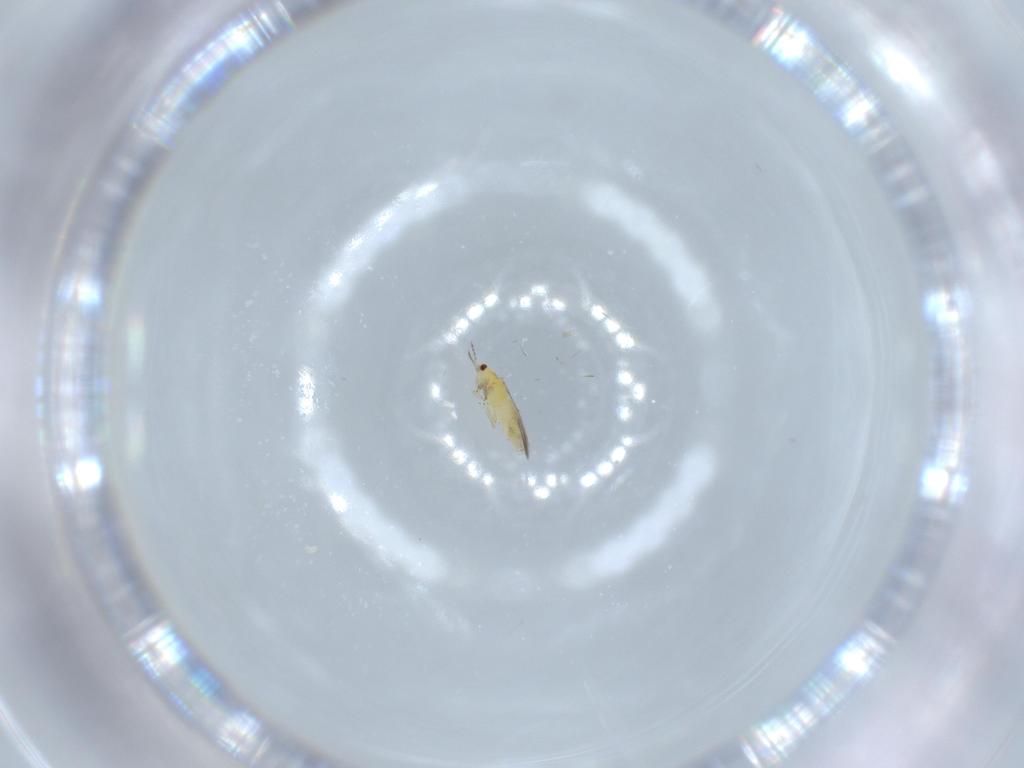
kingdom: Animalia
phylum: Arthropoda
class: Insecta
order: Thysanoptera
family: Thripidae
